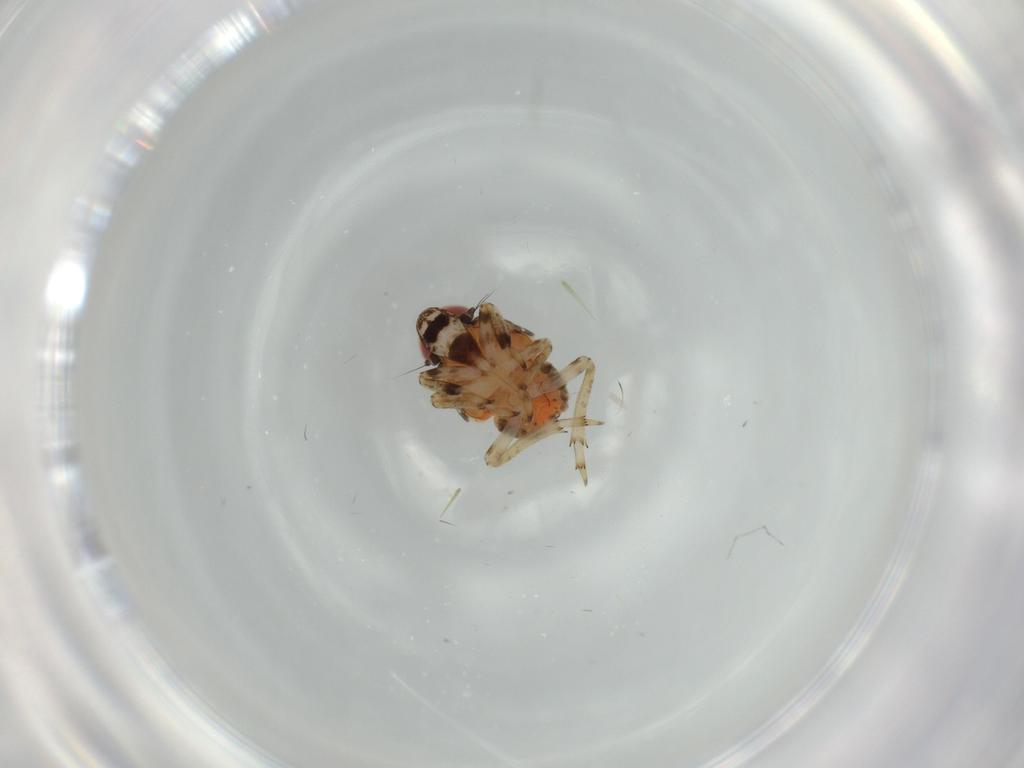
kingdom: Animalia
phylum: Arthropoda
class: Insecta
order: Hemiptera
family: Issidae
